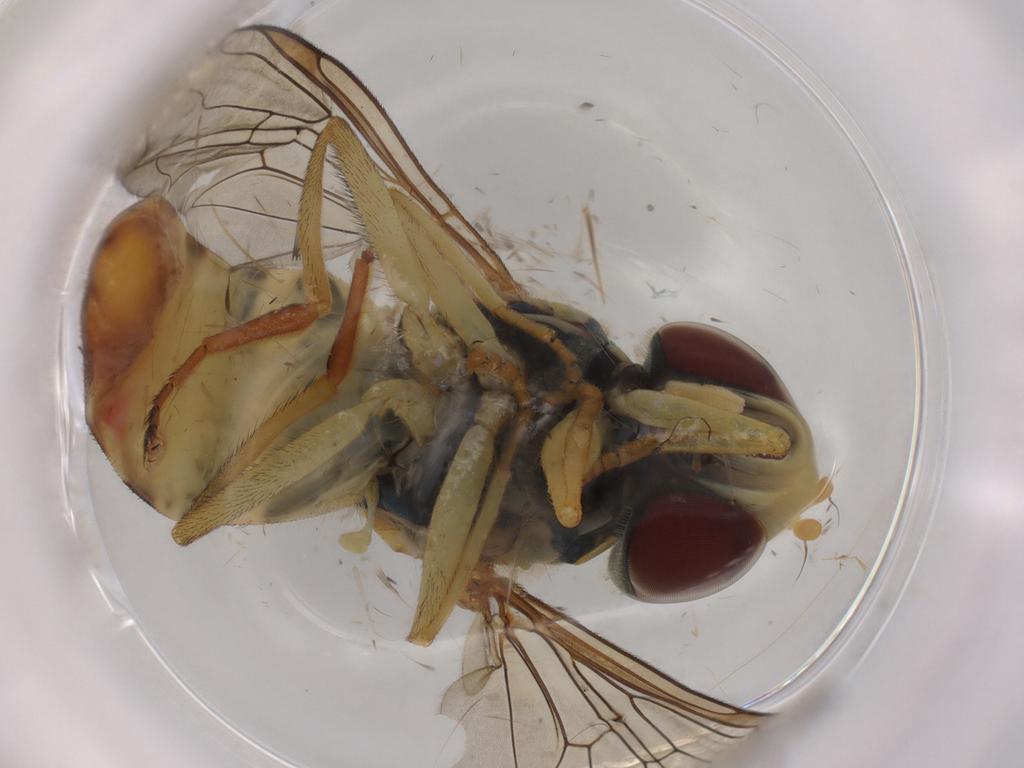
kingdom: Animalia
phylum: Arthropoda
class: Insecta
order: Diptera
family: Syrphidae
